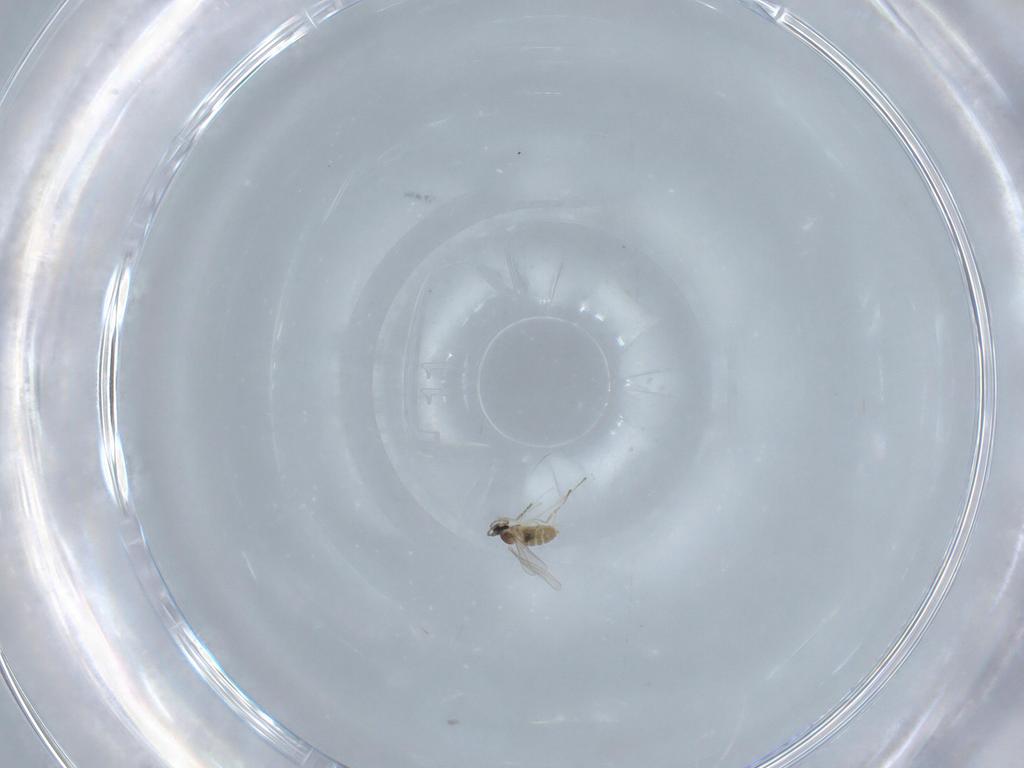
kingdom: Animalia
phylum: Arthropoda
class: Insecta
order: Diptera
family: Cecidomyiidae
